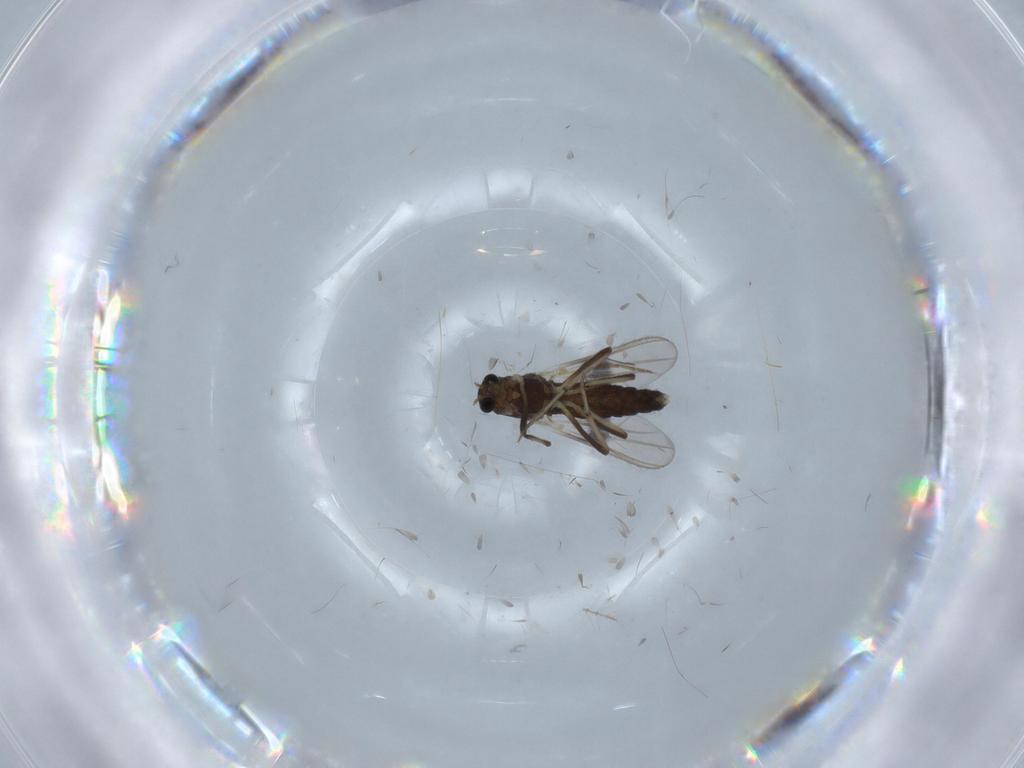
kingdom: Animalia
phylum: Arthropoda
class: Insecta
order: Diptera
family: Chironomidae
